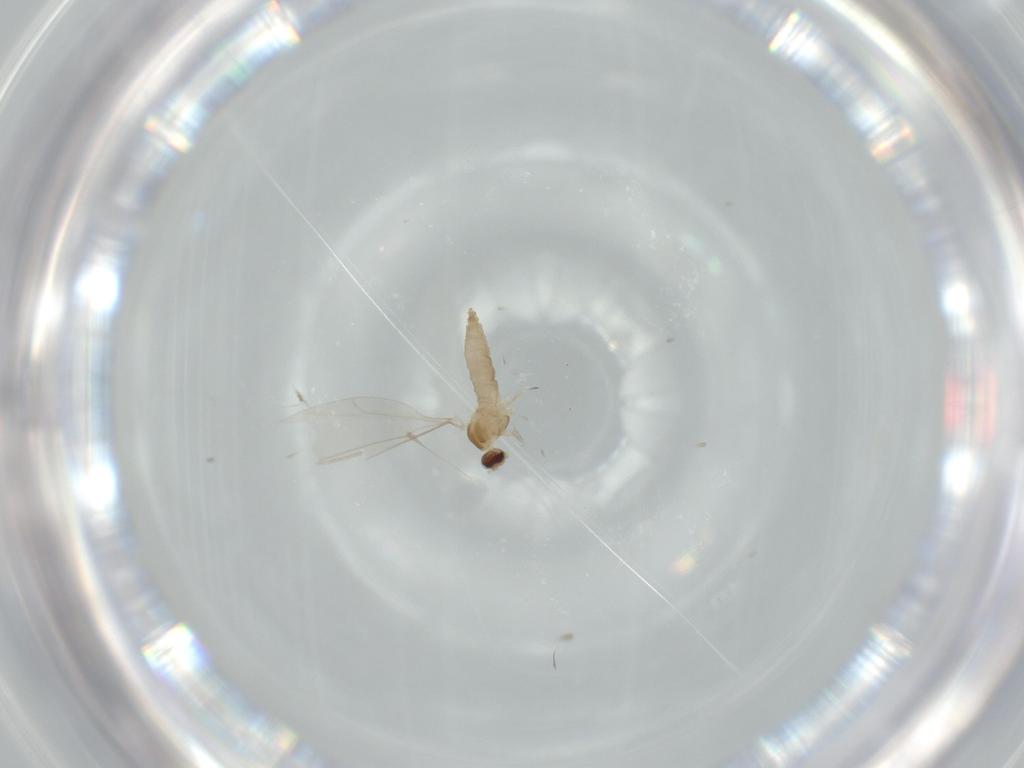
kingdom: Animalia
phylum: Arthropoda
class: Insecta
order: Diptera
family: Cecidomyiidae
